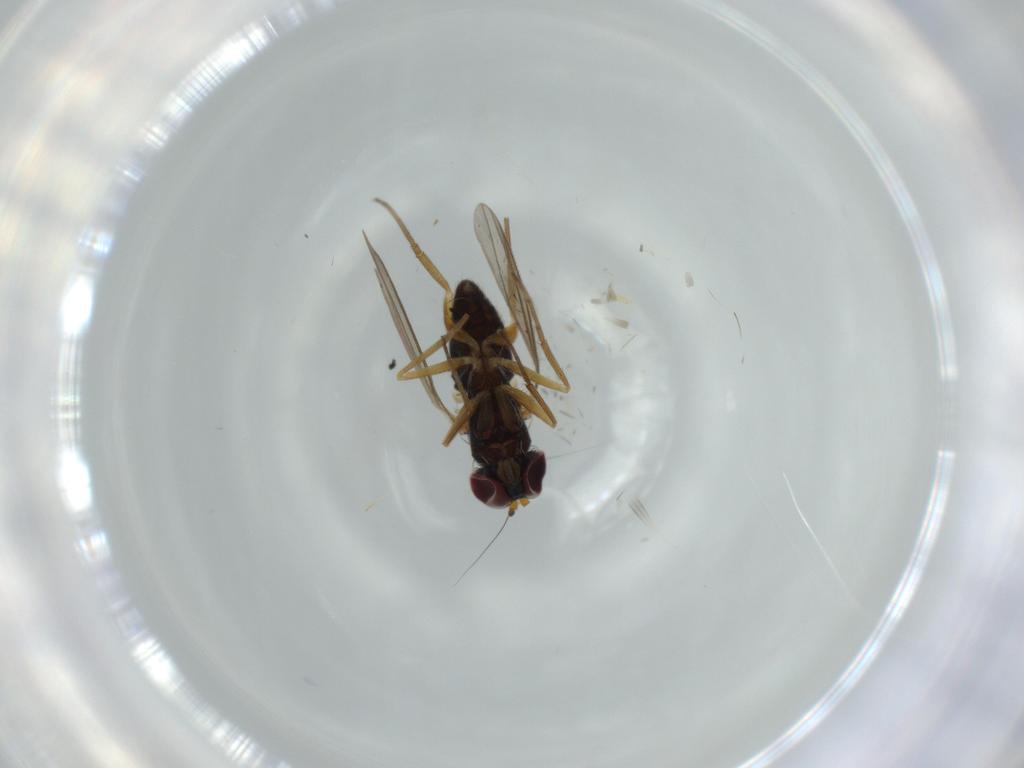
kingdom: Animalia
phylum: Arthropoda
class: Insecta
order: Diptera
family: Dolichopodidae
